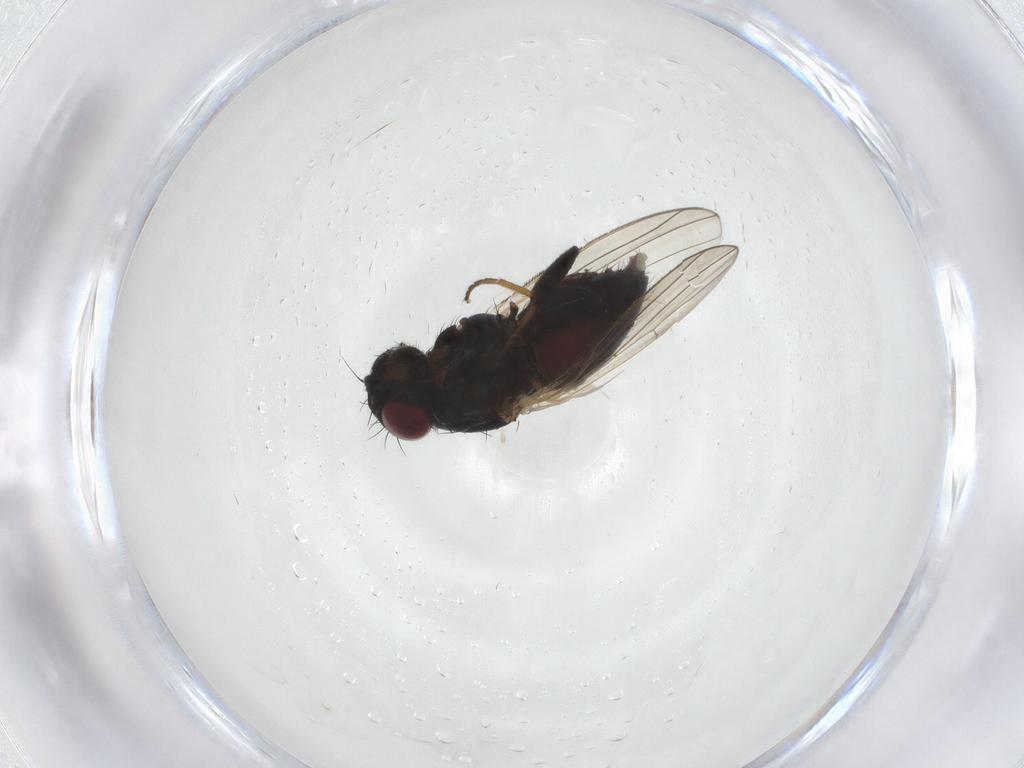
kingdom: Animalia
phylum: Arthropoda
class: Insecta
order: Diptera
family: Carnidae
